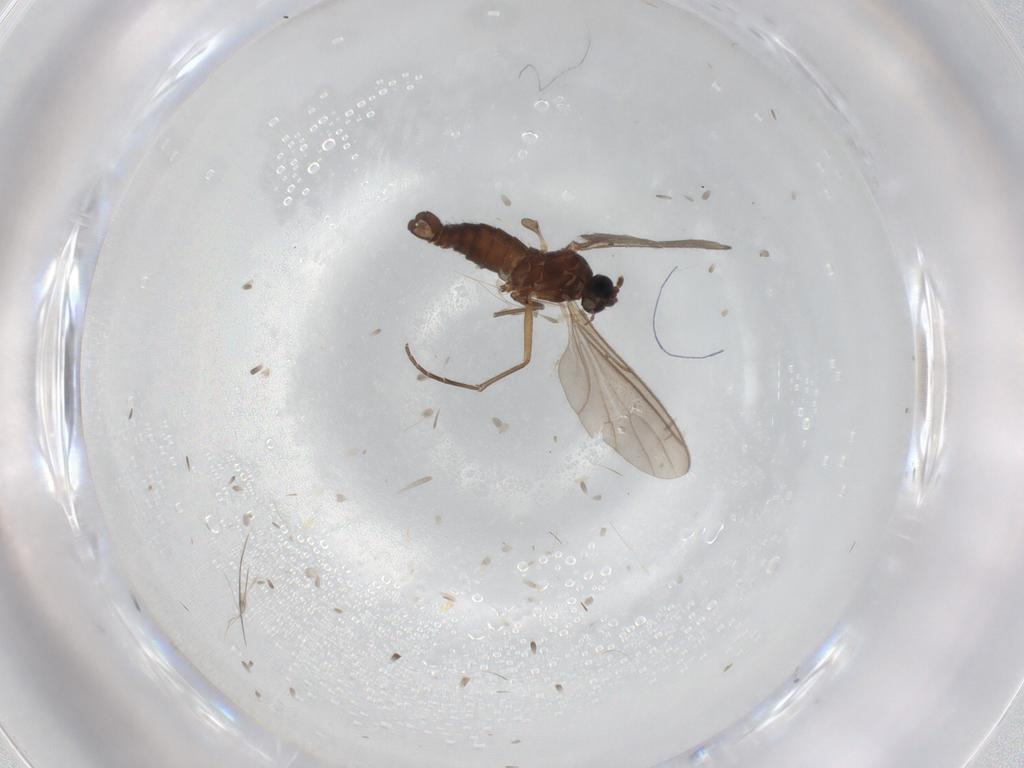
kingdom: Animalia
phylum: Arthropoda
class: Insecta
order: Diptera
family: Sciaridae
